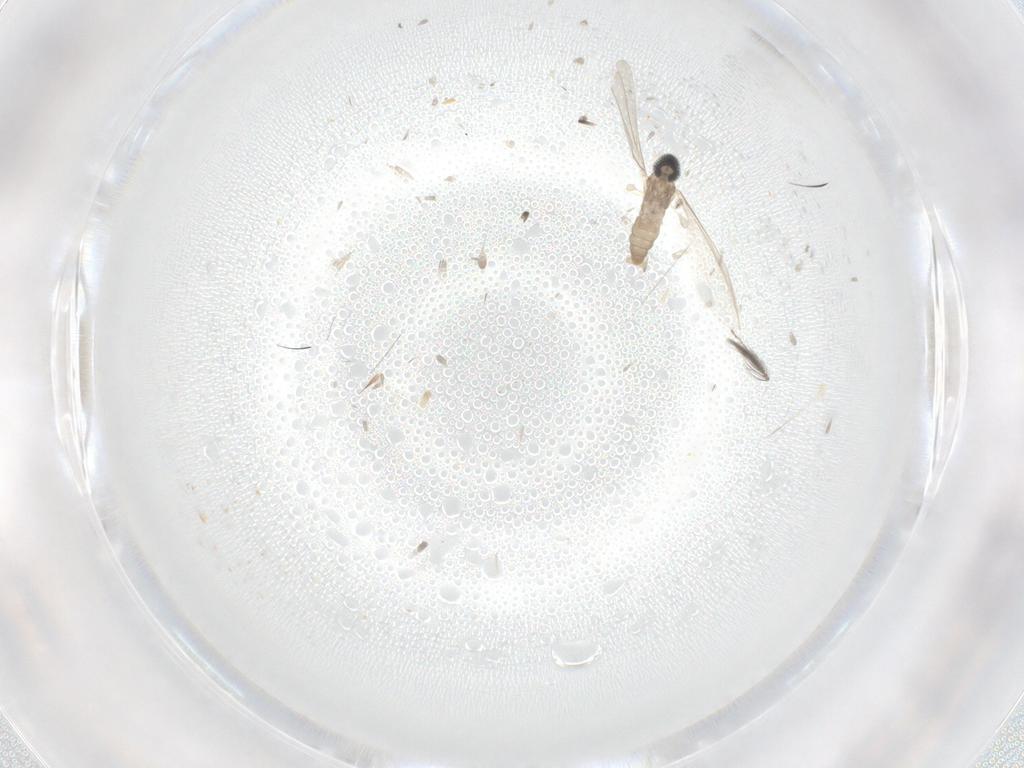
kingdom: Animalia
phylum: Arthropoda
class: Insecta
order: Diptera
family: Cecidomyiidae
